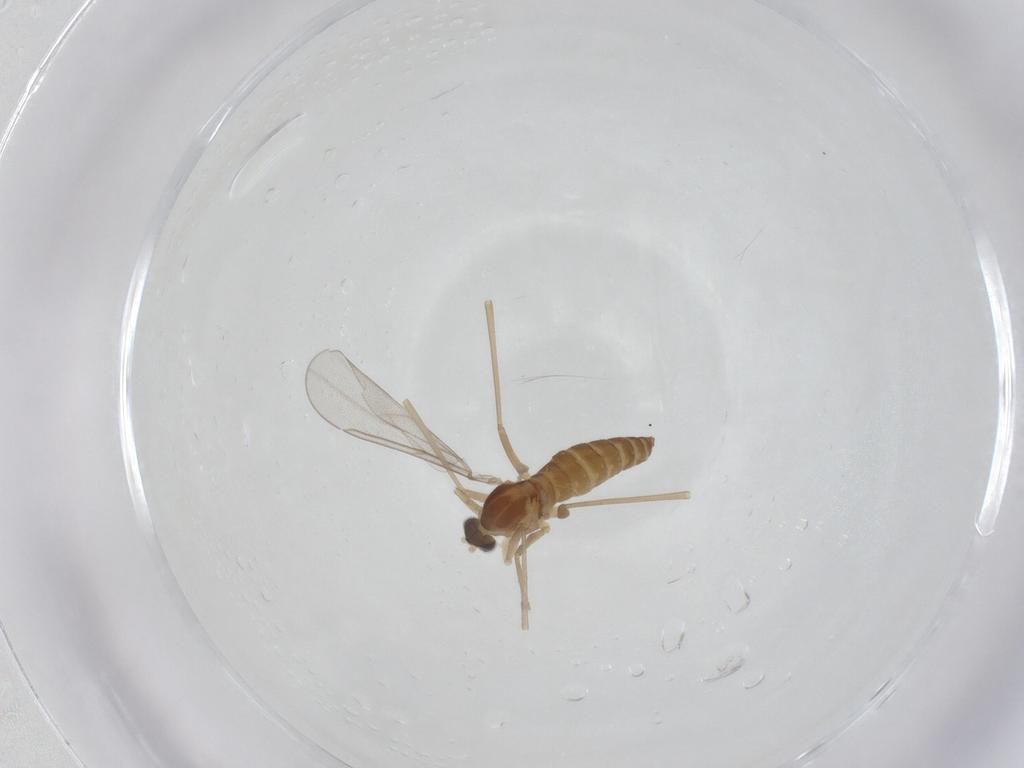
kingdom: Animalia
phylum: Arthropoda
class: Insecta
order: Diptera
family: Cecidomyiidae
